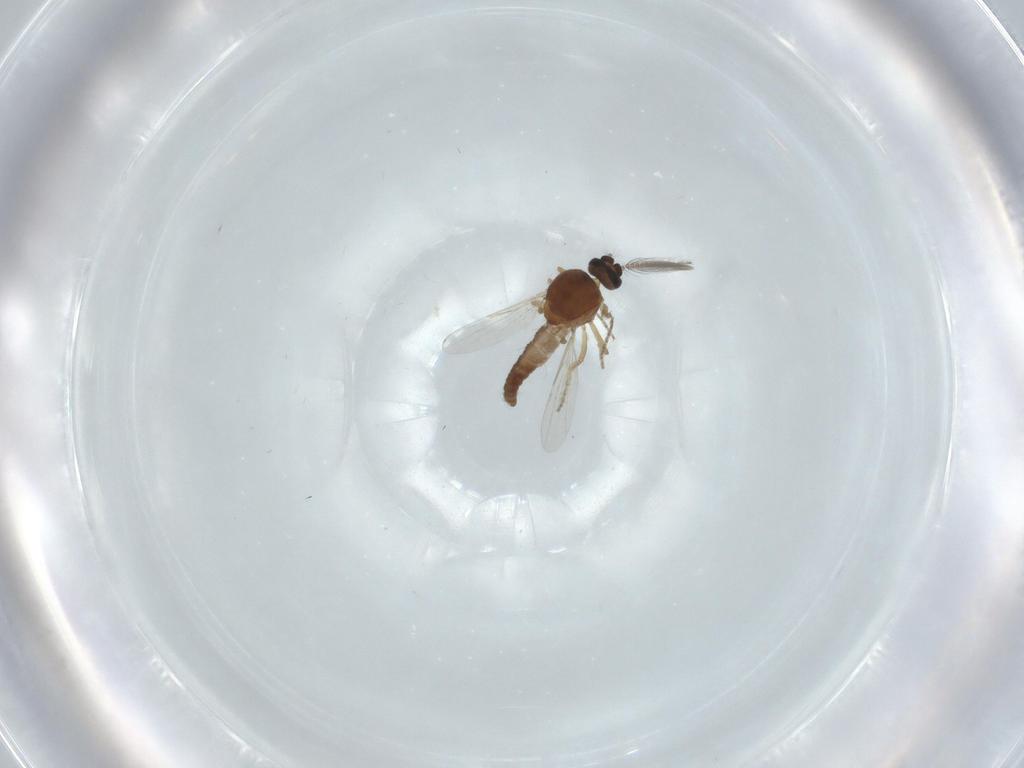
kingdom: Animalia
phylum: Arthropoda
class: Insecta
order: Diptera
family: Ceratopogonidae
